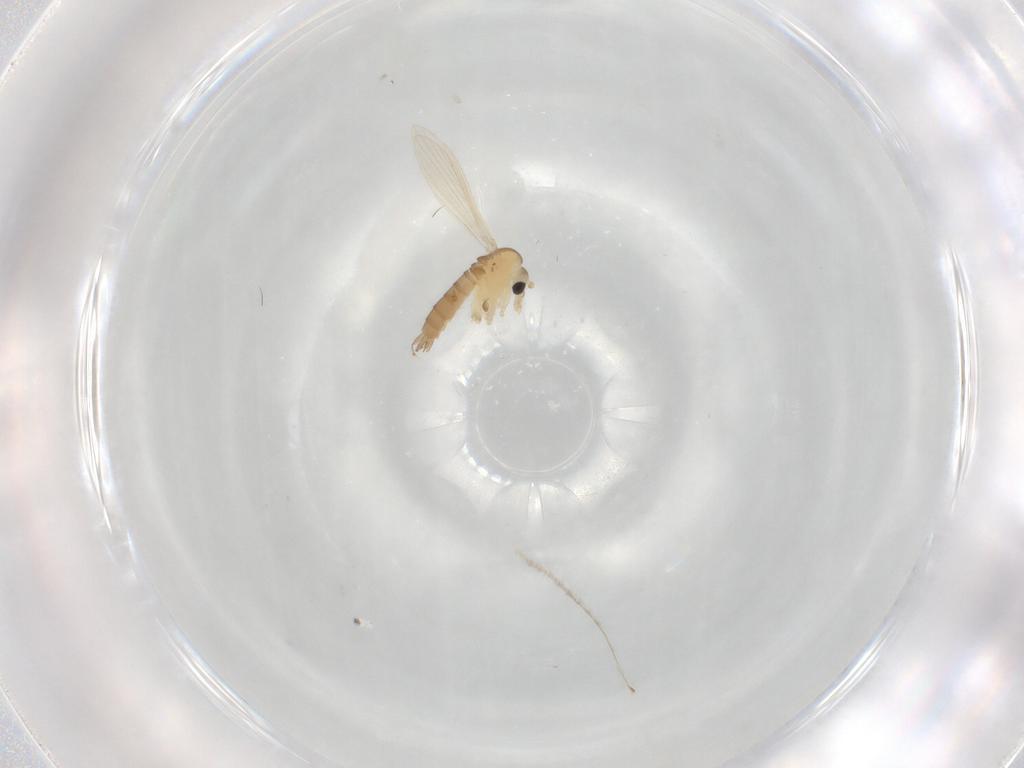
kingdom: Animalia
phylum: Arthropoda
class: Insecta
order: Diptera
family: Psychodidae
